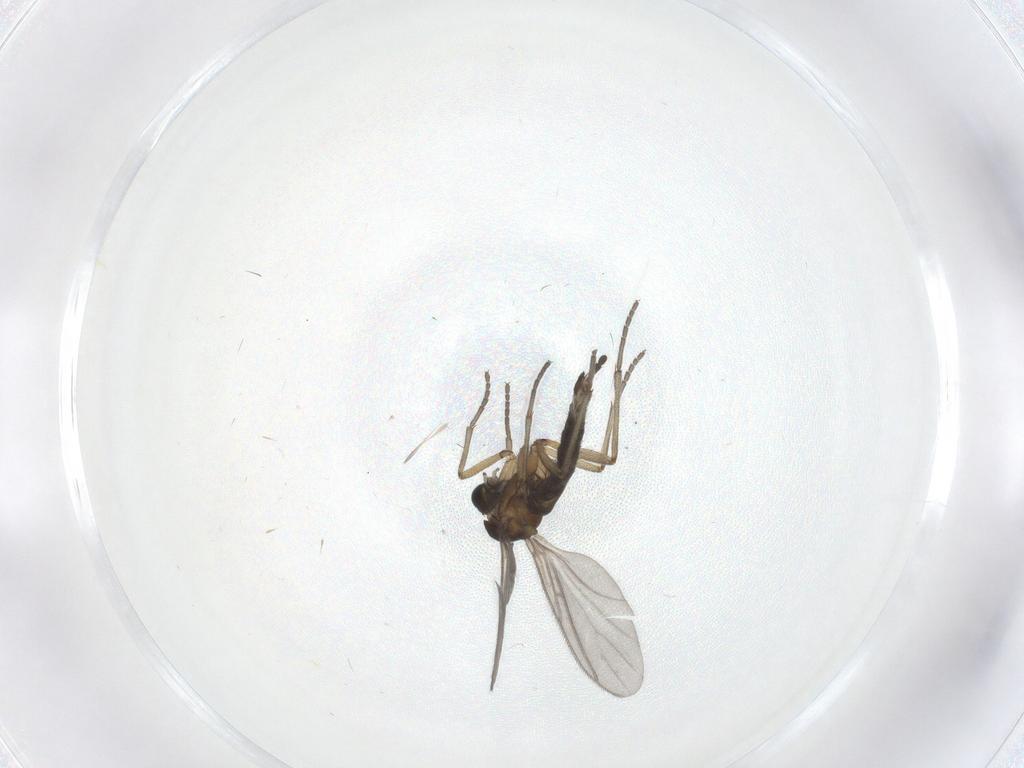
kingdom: Animalia
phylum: Arthropoda
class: Insecta
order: Diptera
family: Sciaridae
